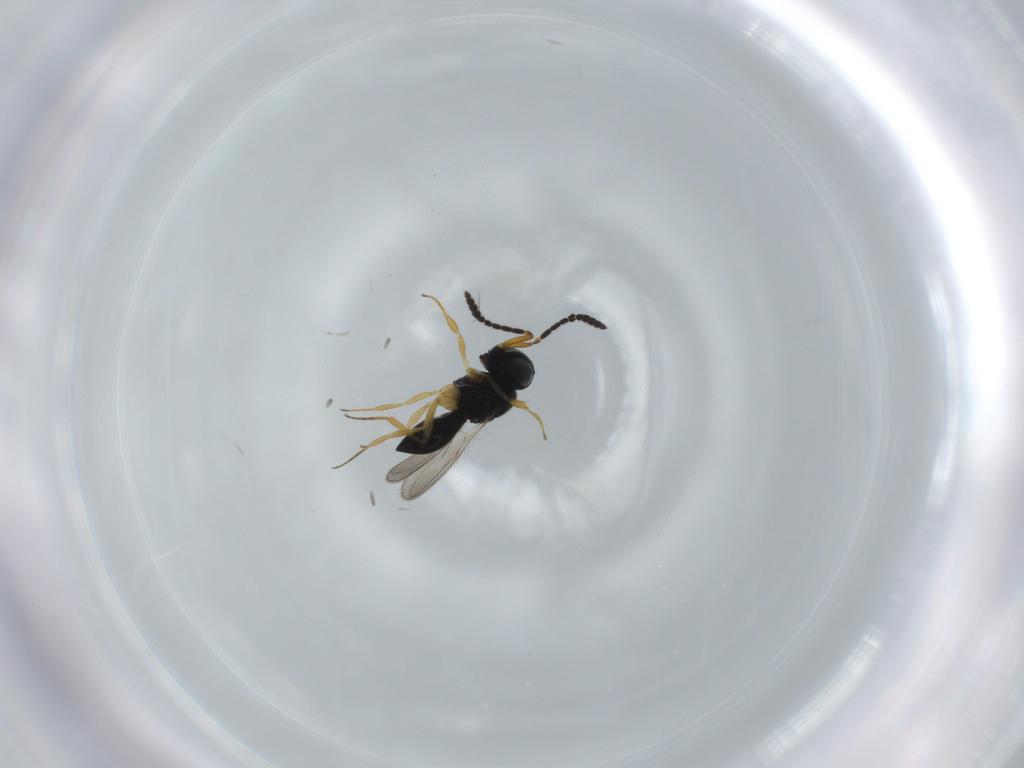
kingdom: Animalia
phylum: Arthropoda
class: Insecta
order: Hymenoptera
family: Scelionidae
